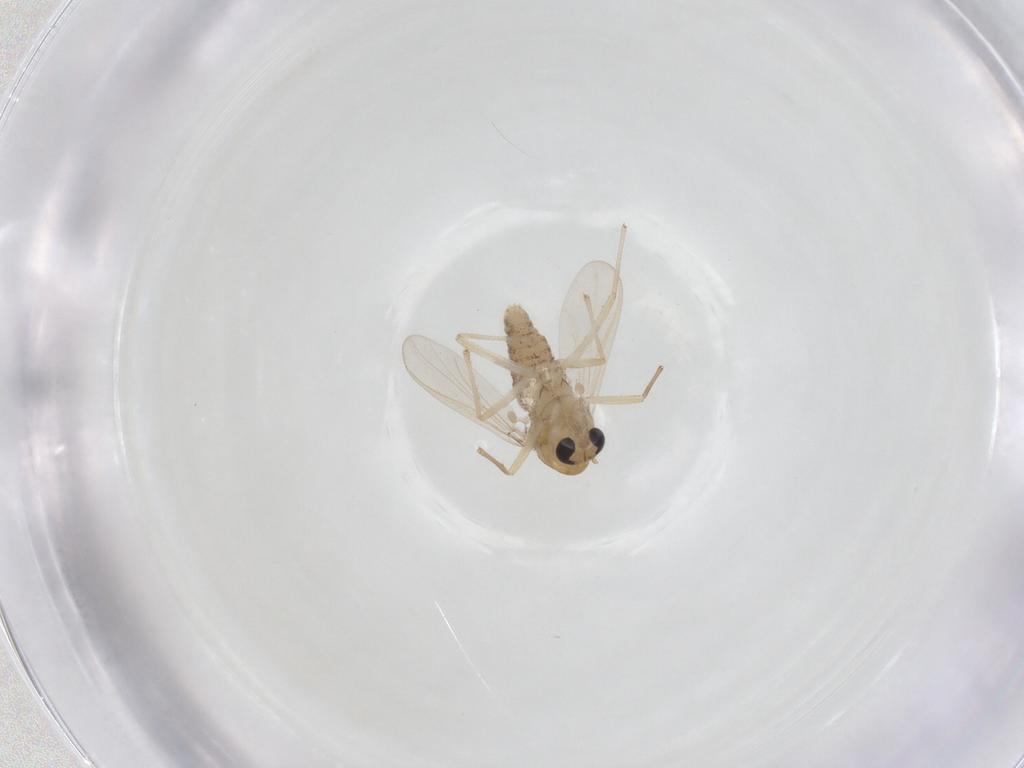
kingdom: Animalia
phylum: Arthropoda
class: Insecta
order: Diptera
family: Chironomidae
